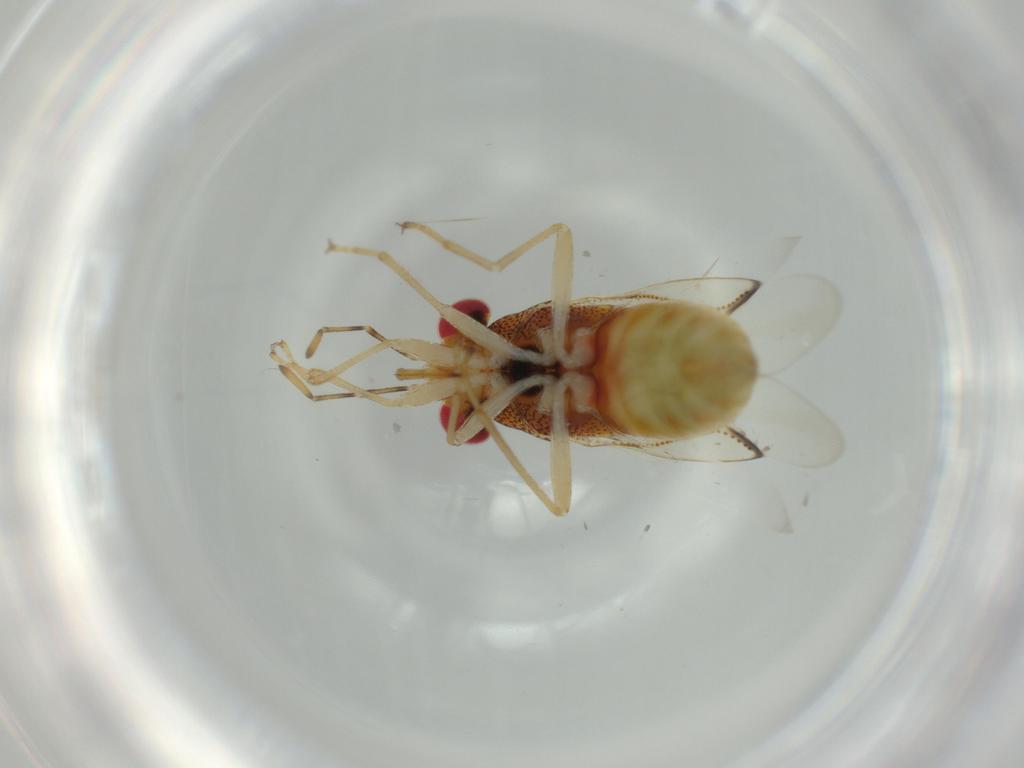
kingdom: Animalia
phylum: Arthropoda
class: Insecta
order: Hemiptera
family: Geocoridae
